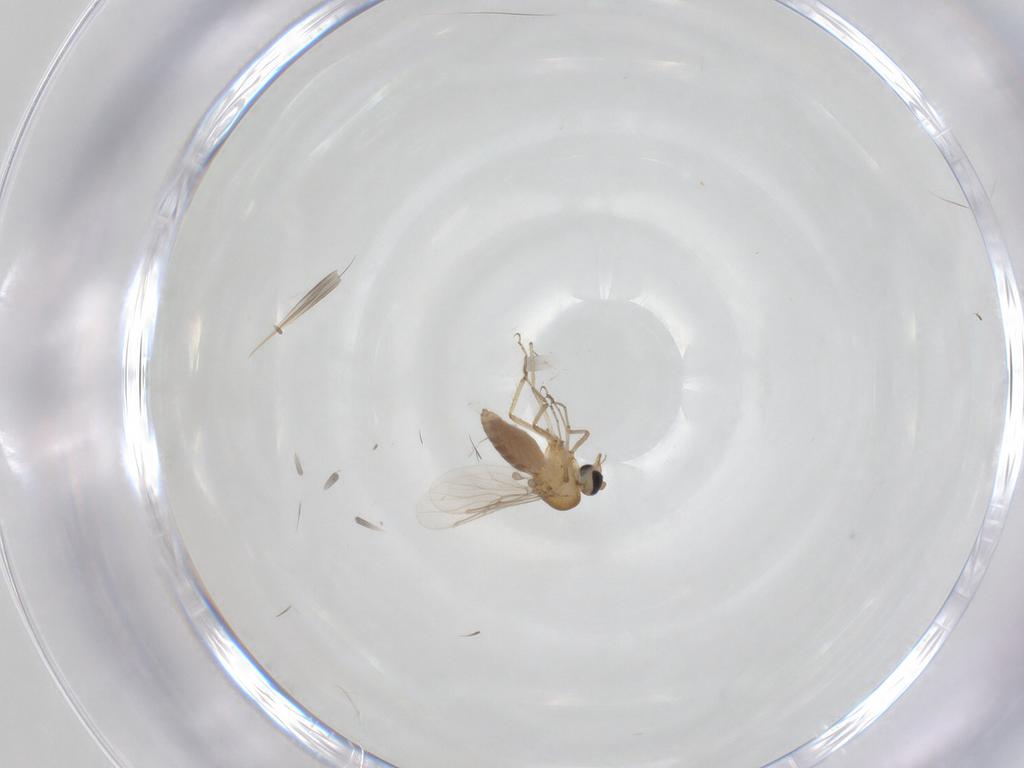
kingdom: Animalia
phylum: Arthropoda
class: Insecta
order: Diptera
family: Ceratopogonidae
